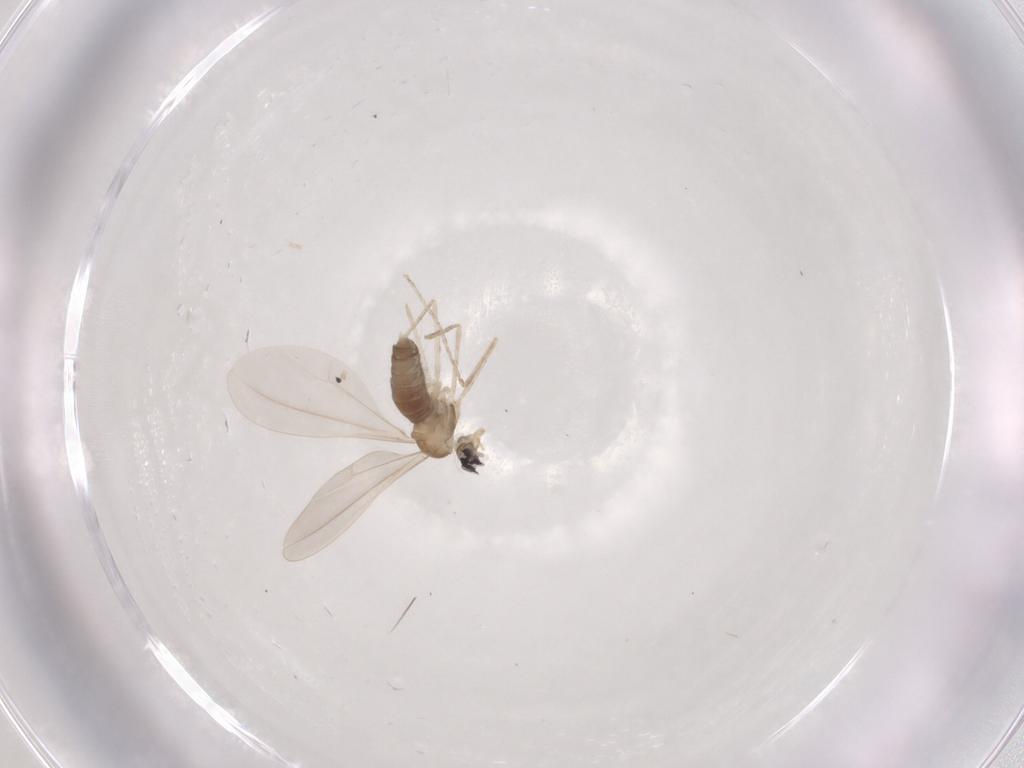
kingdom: Animalia
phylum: Arthropoda
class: Insecta
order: Diptera
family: Cecidomyiidae
